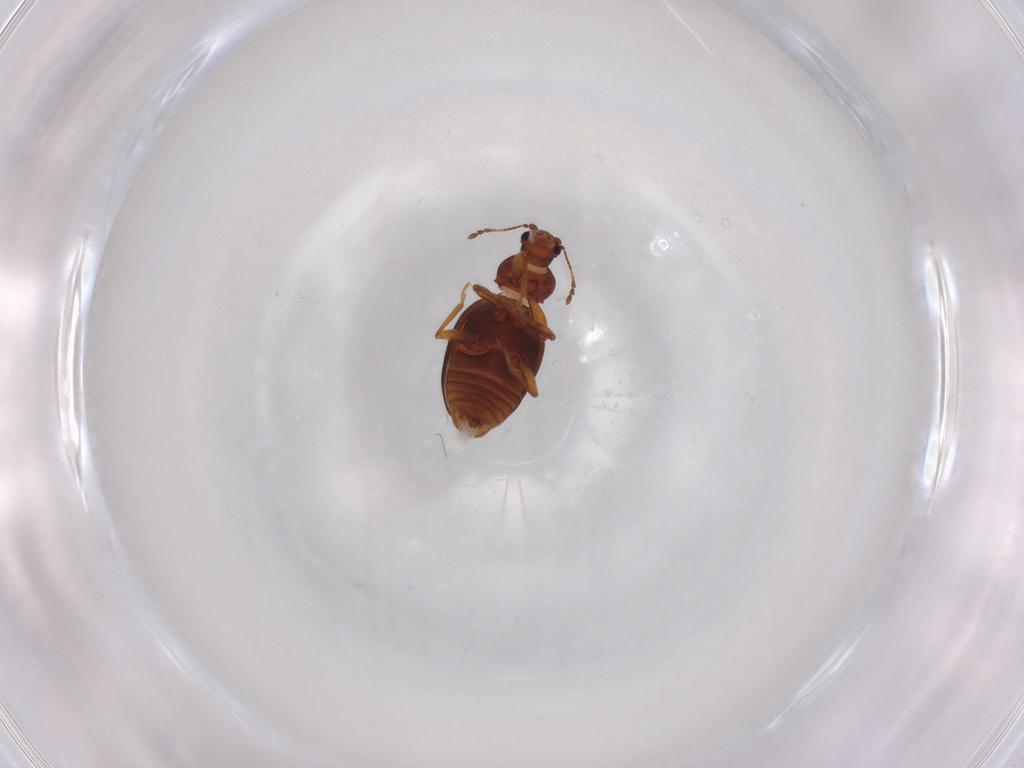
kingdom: Animalia
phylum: Arthropoda
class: Insecta
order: Coleoptera
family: Latridiidae
